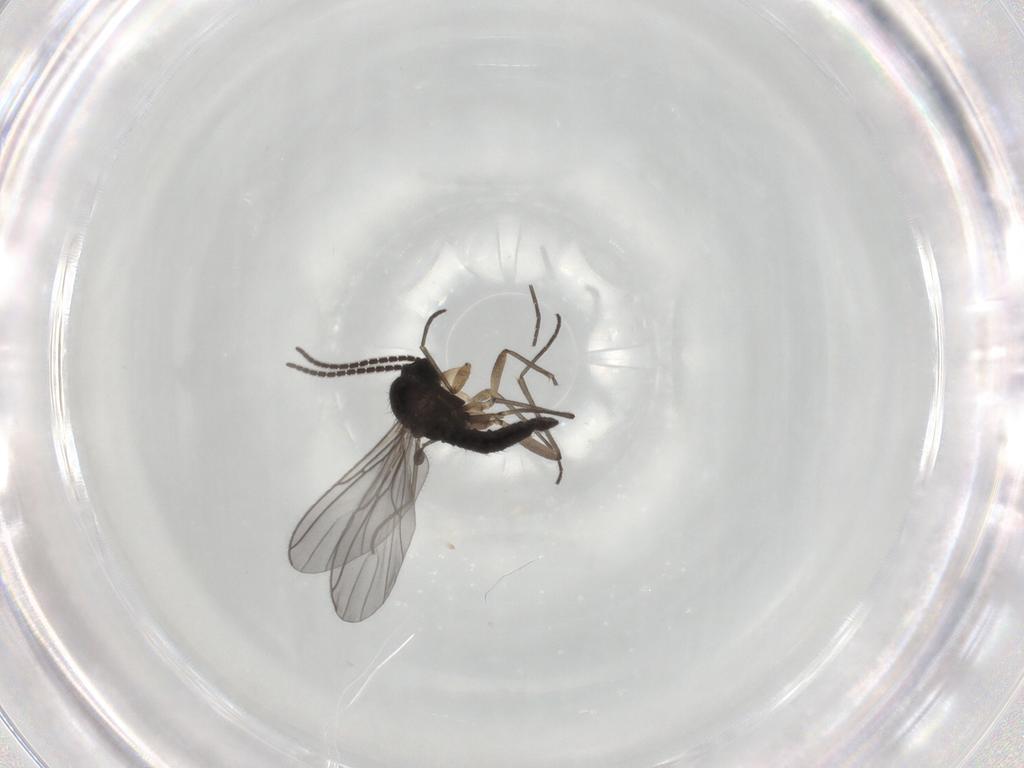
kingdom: Animalia
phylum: Arthropoda
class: Insecta
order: Diptera
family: Sciaridae
